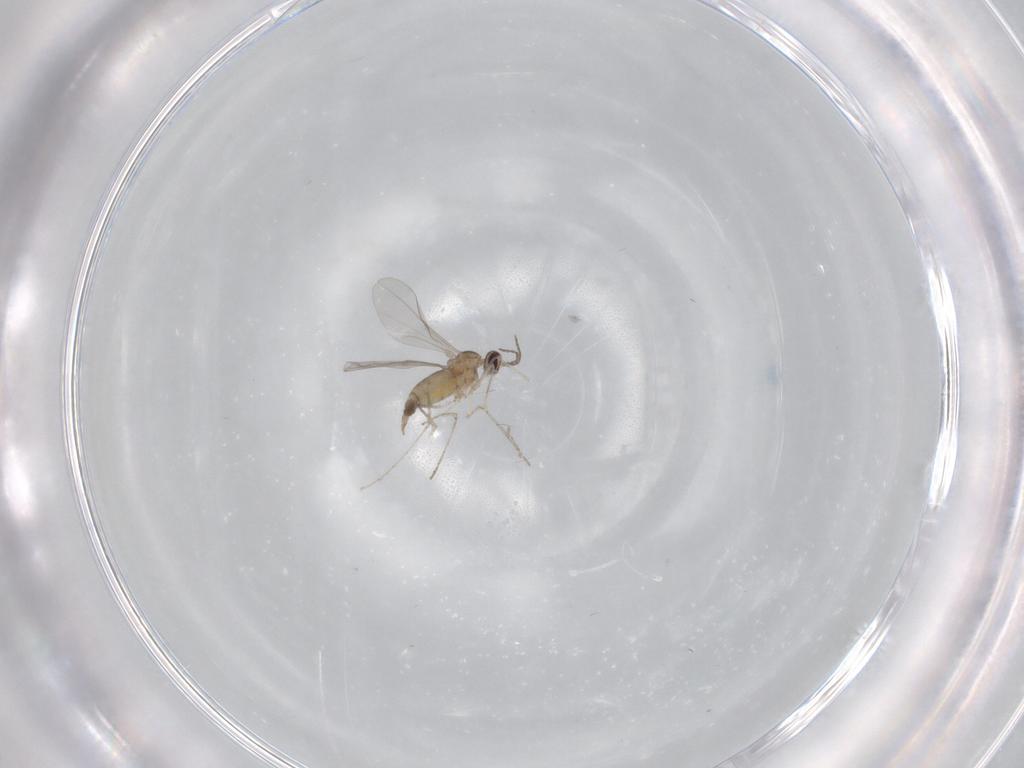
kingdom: Animalia
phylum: Arthropoda
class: Insecta
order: Diptera
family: Cecidomyiidae
